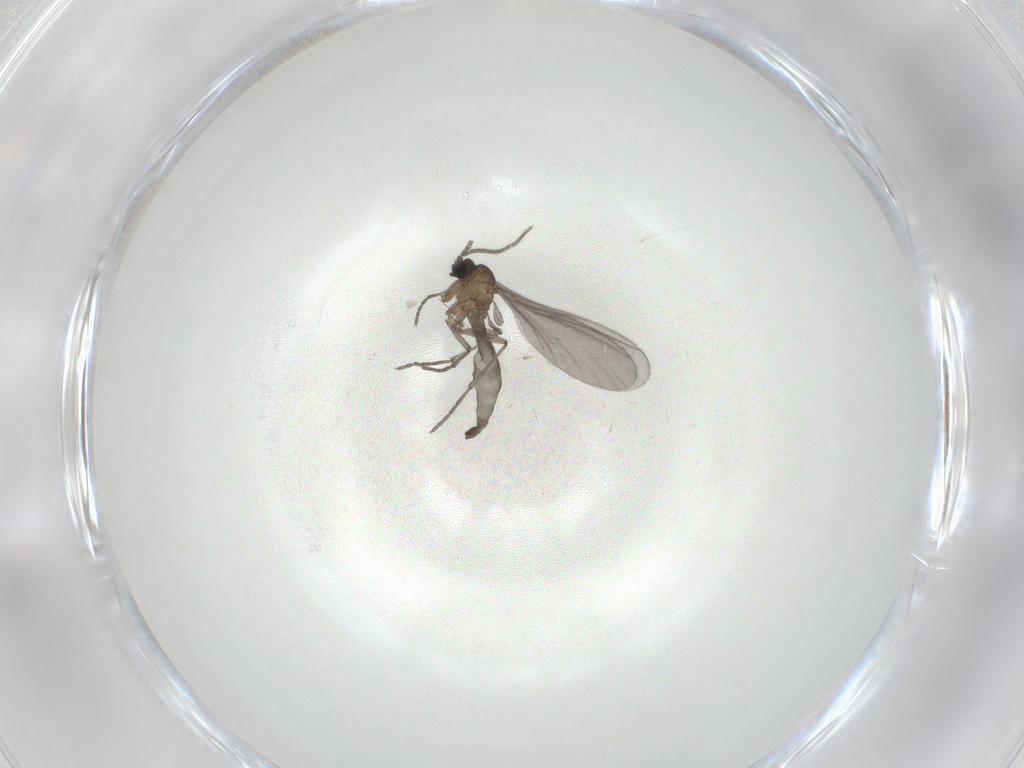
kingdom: Animalia
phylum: Arthropoda
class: Insecta
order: Diptera
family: Sciaridae
